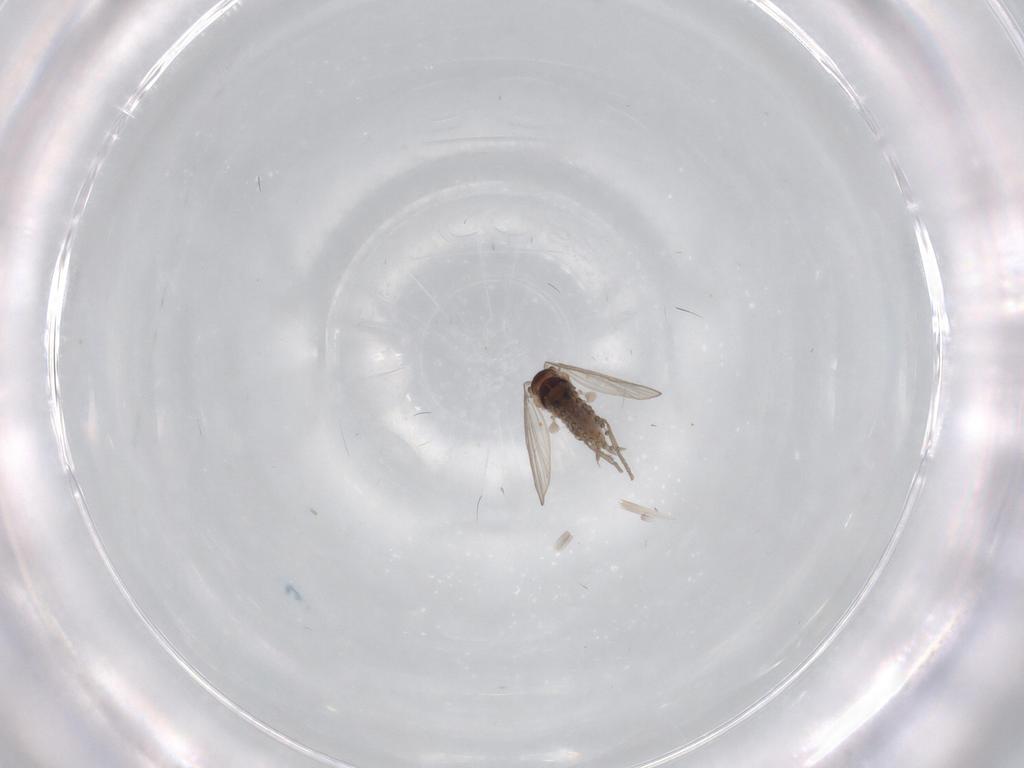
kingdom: Animalia
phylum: Arthropoda
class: Insecta
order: Diptera
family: Psychodidae
